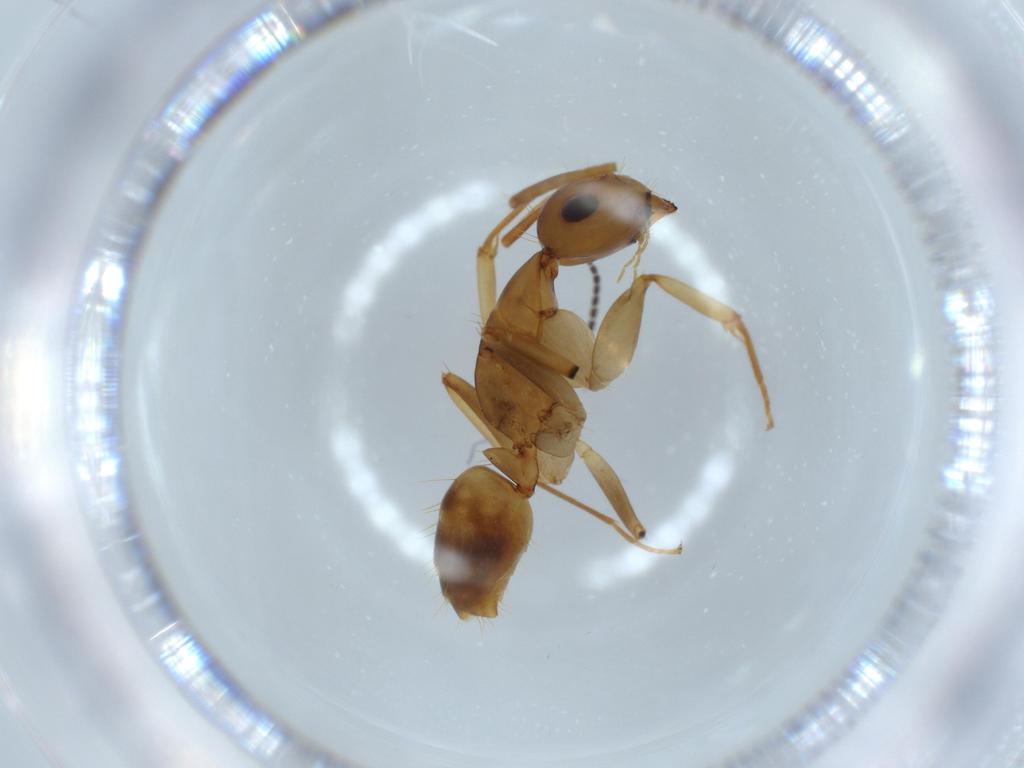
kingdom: Animalia
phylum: Arthropoda
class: Insecta
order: Hymenoptera
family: Formicidae
